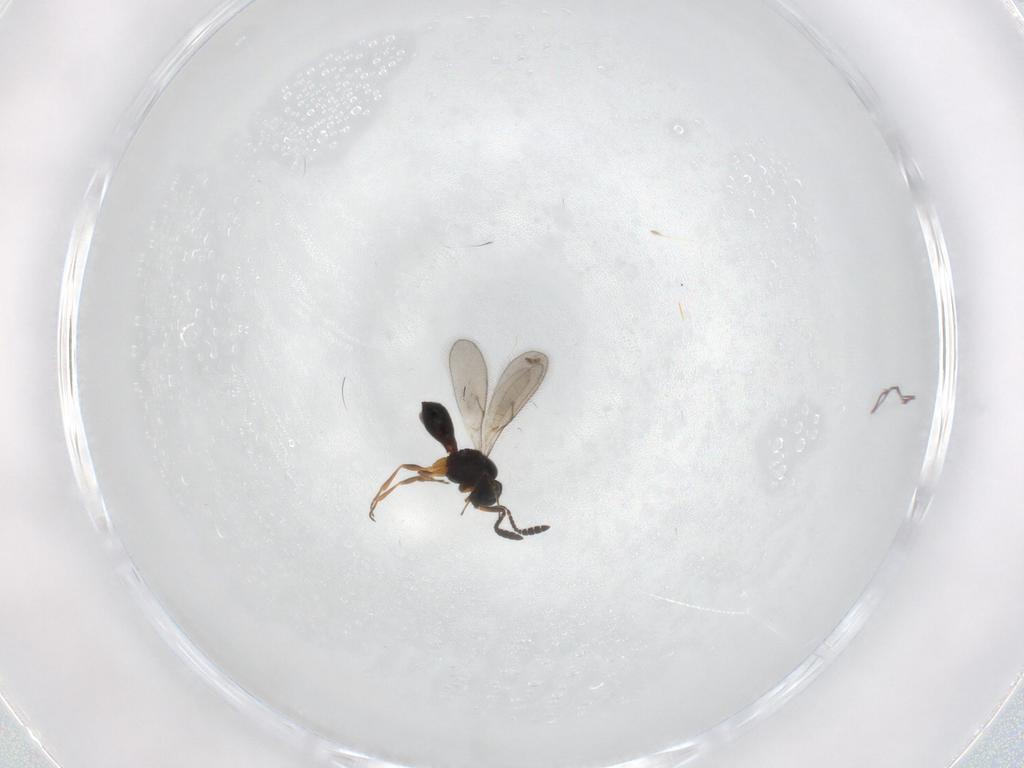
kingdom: Animalia
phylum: Arthropoda
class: Insecta
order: Hymenoptera
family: Scelionidae
